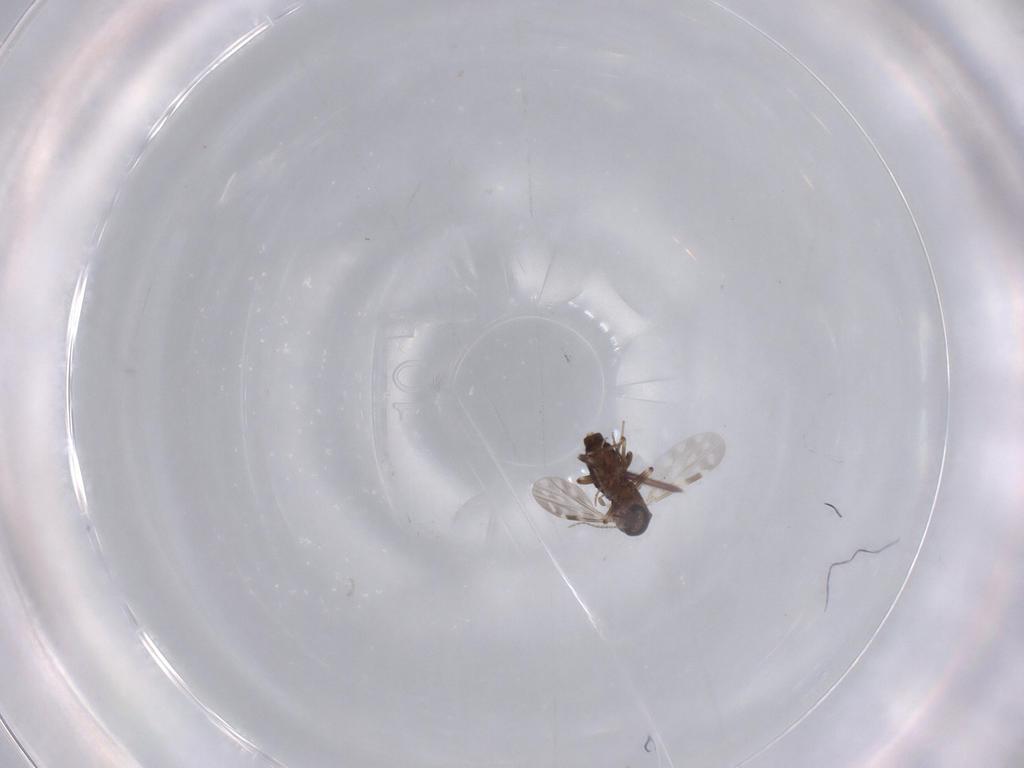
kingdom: Animalia
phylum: Arthropoda
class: Insecta
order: Diptera
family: Ceratopogonidae
